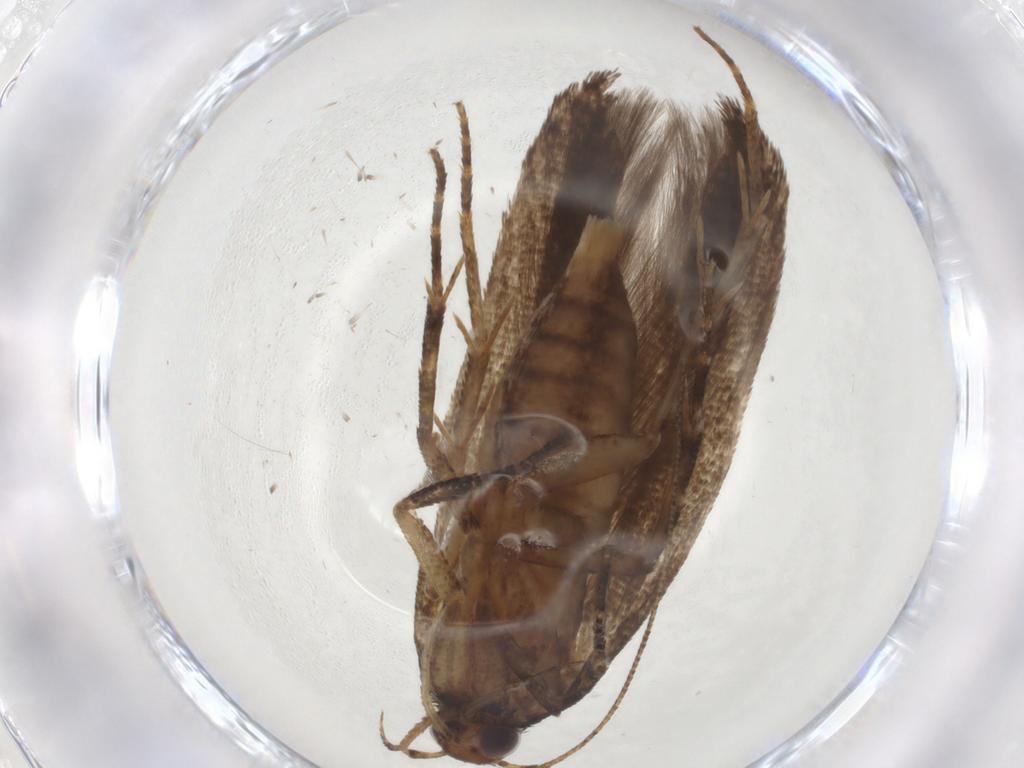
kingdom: Animalia
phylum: Arthropoda
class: Insecta
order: Lepidoptera
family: Gelechiidae
